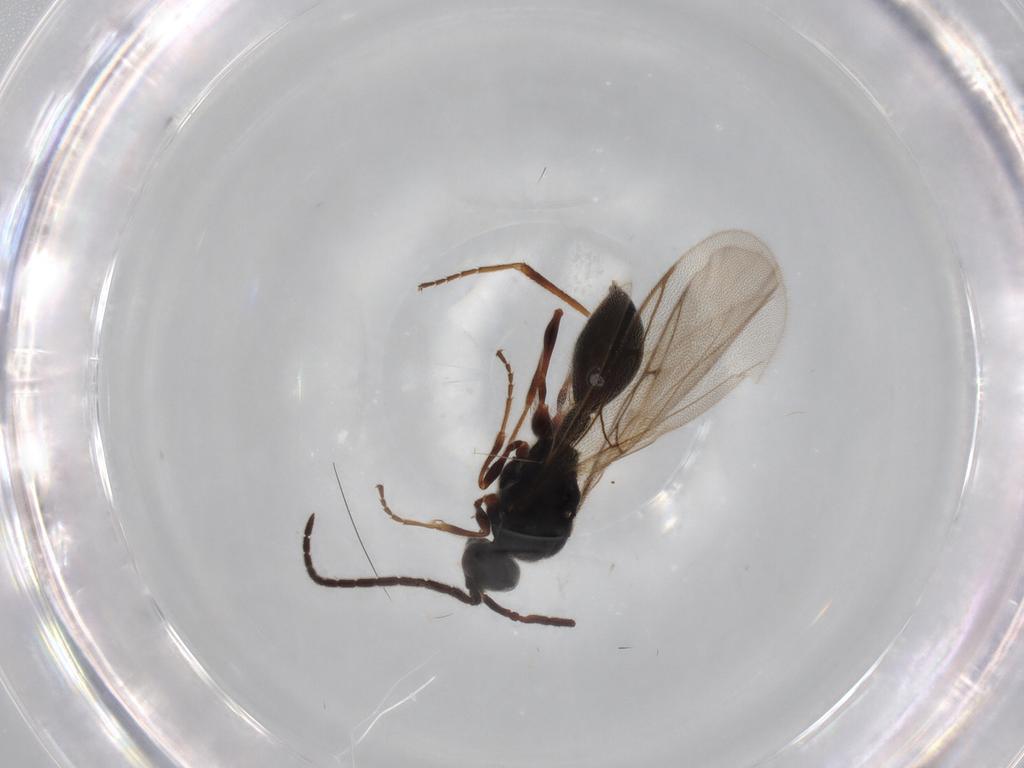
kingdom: Animalia
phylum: Arthropoda
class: Insecta
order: Hymenoptera
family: Diapriidae
